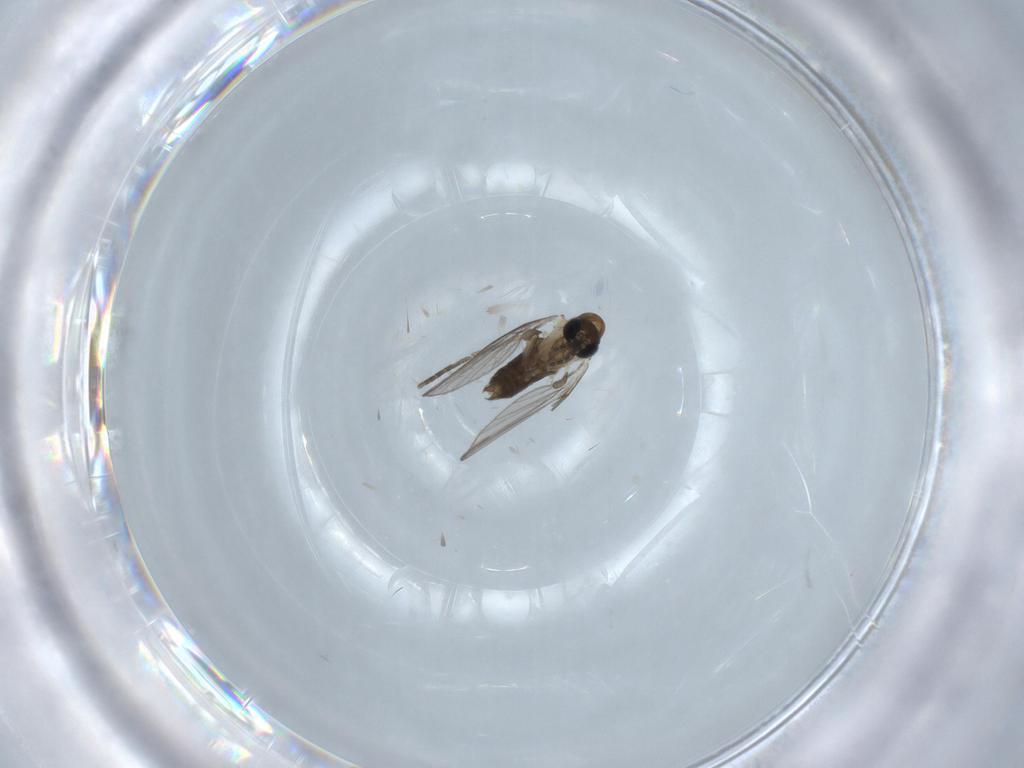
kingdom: Animalia
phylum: Arthropoda
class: Insecta
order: Diptera
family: Psychodidae
